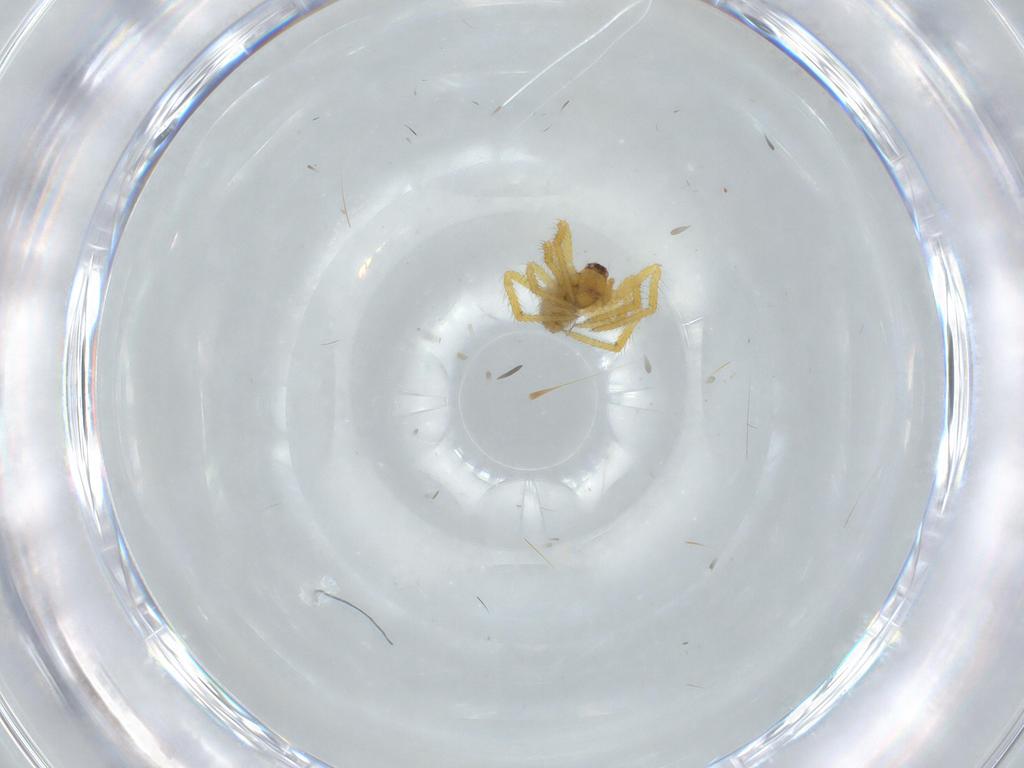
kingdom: Animalia
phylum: Arthropoda
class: Arachnida
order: Araneae
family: Theridiidae
